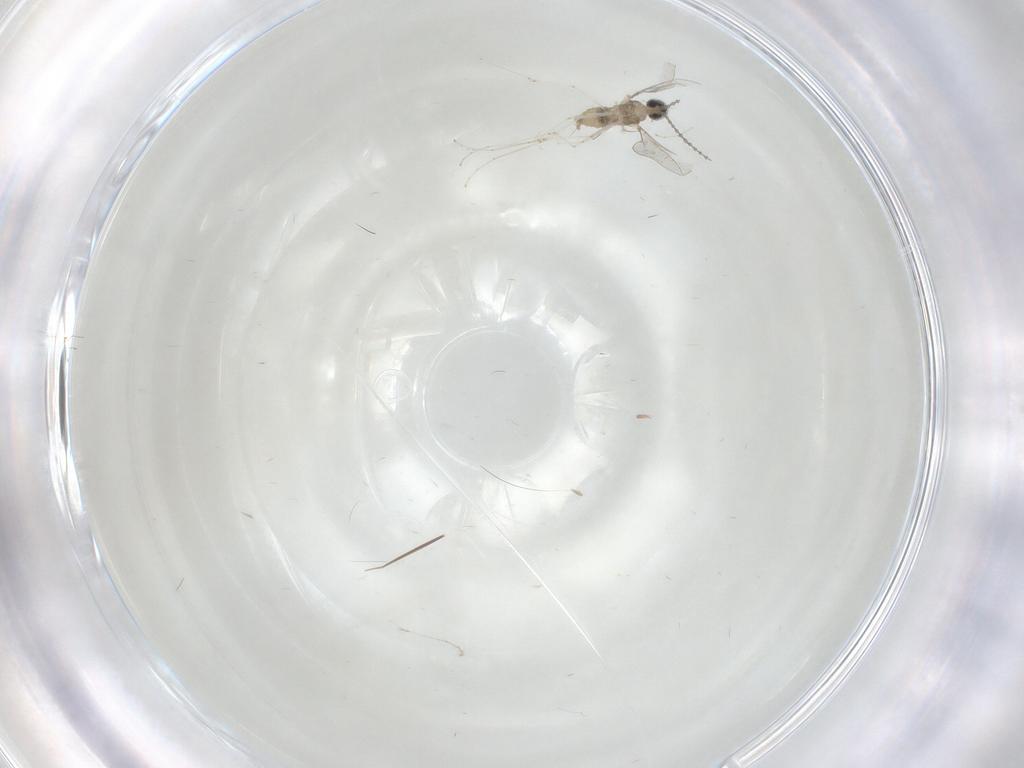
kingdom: Animalia
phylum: Arthropoda
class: Insecta
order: Diptera
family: Cecidomyiidae
